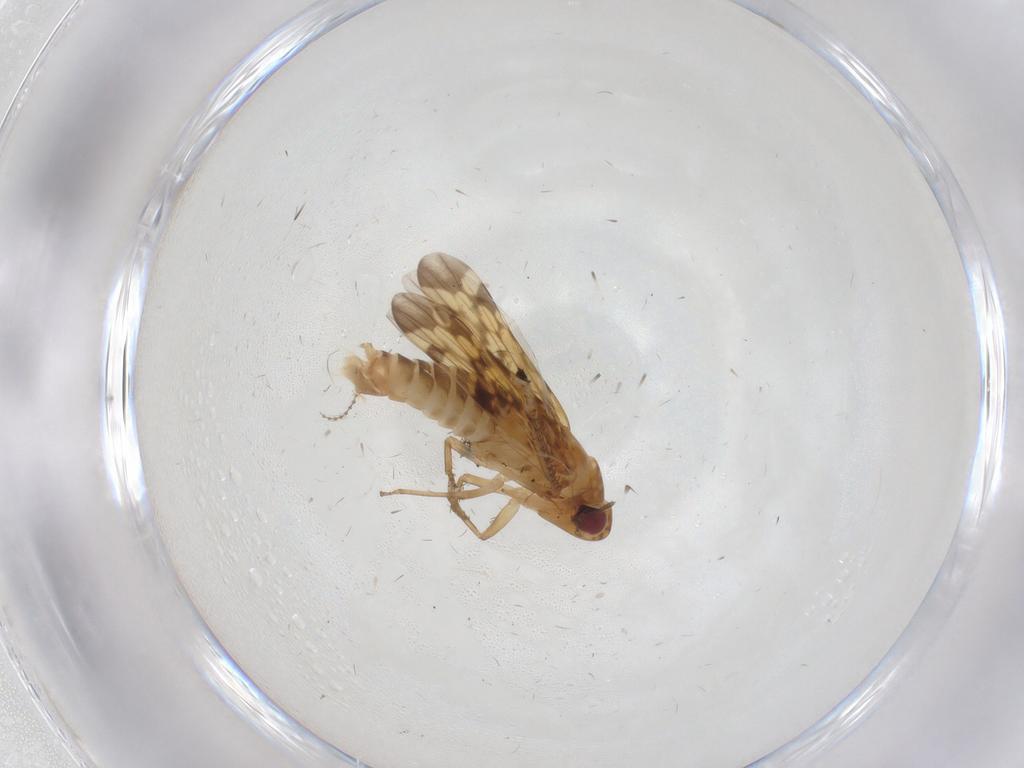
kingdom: Animalia
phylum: Arthropoda
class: Insecta
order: Hemiptera
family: Cicadellidae
